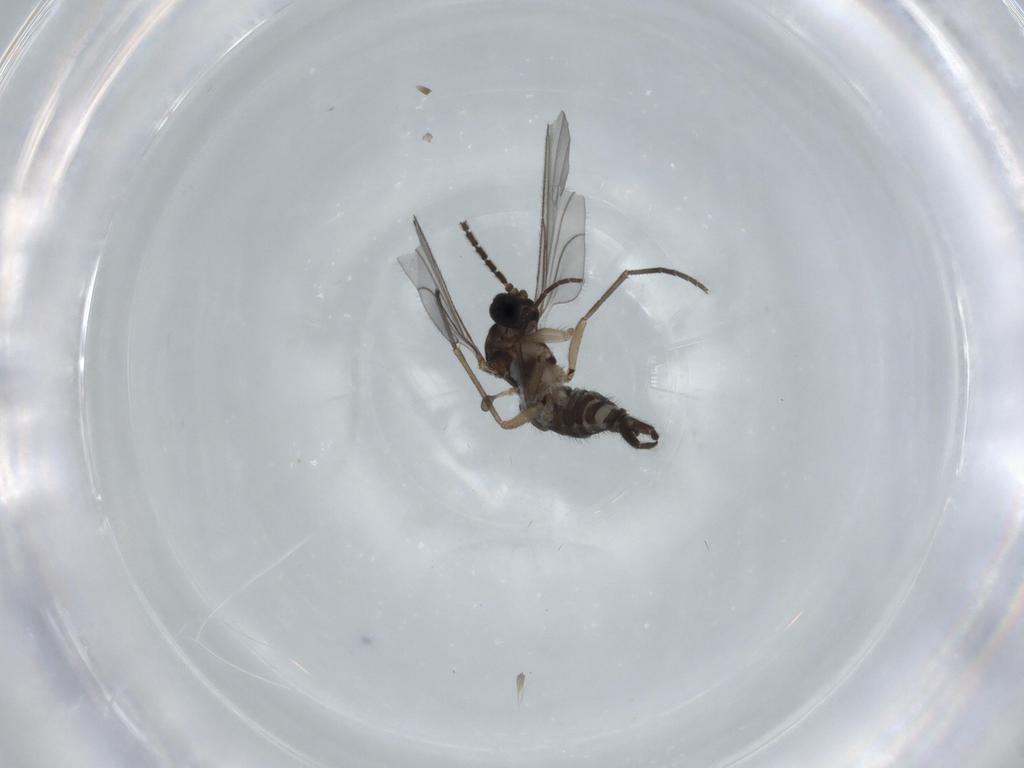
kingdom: Animalia
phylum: Arthropoda
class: Insecta
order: Diptera
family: Sciaridae
